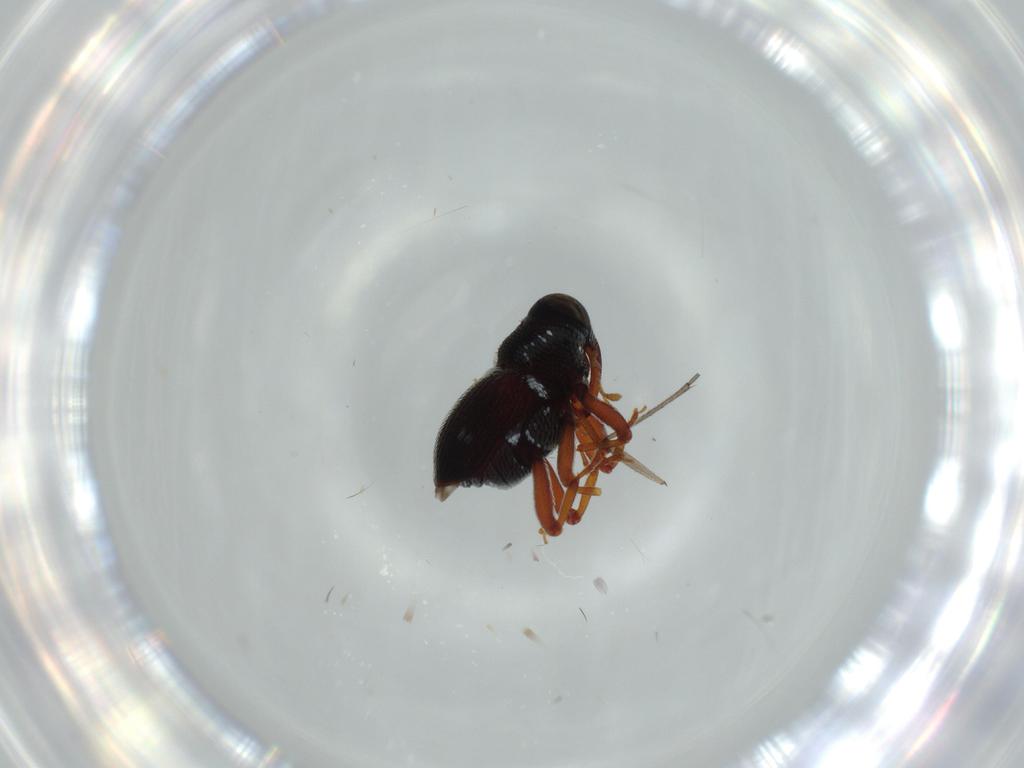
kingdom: Animalia
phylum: Arthropoda
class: Insecta
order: Coleoptera
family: Curculionidae
